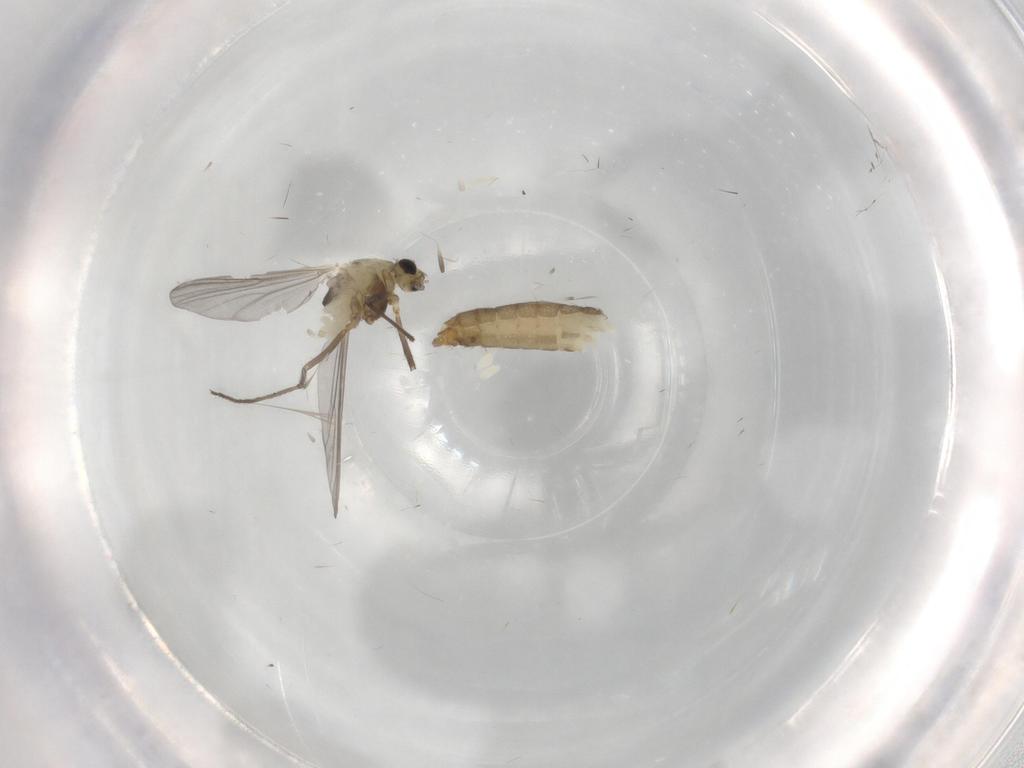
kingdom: Animalia
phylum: Arthropoda
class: Insecta
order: Diptera
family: Chironomidae
